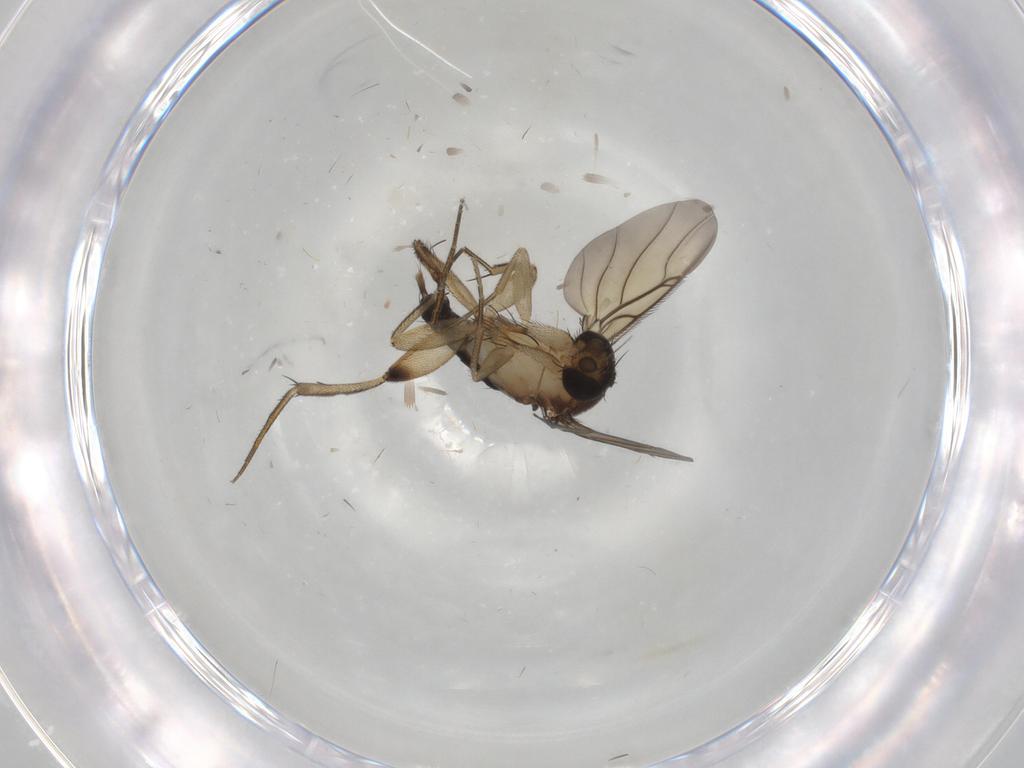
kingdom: Animalia
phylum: Arthropoda
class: Insecta
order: Diptera
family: Phoridae
